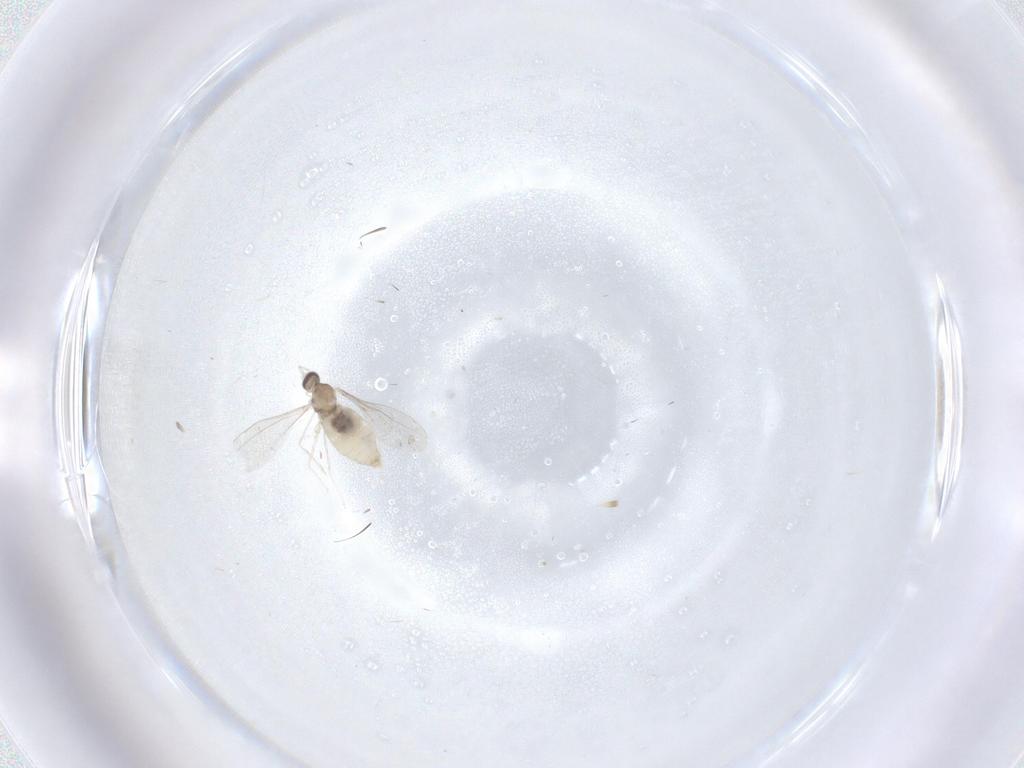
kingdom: Animalia
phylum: Arthropoda
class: Insecta
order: Diptera
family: Cecidomyiidae
